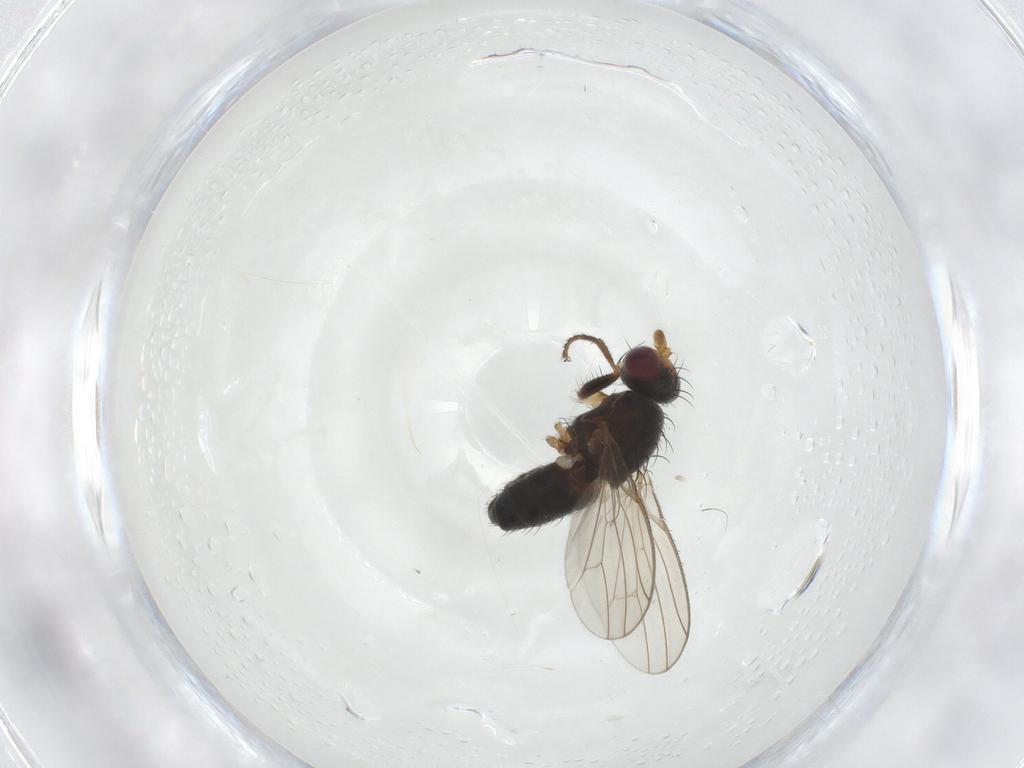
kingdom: Animalia
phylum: Arthropoda
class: Insecta
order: Diptera
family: Heleomyzidae
